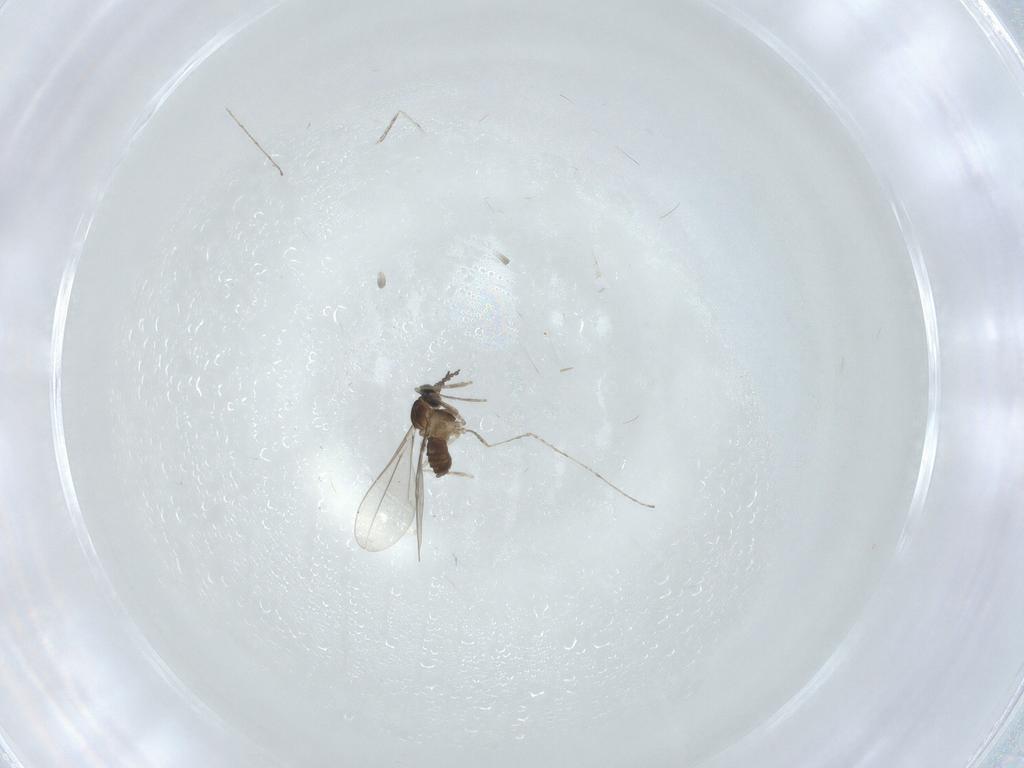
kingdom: Animalia
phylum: Arthropoda
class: Insecta
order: Diptera
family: Cecidomyiidae
